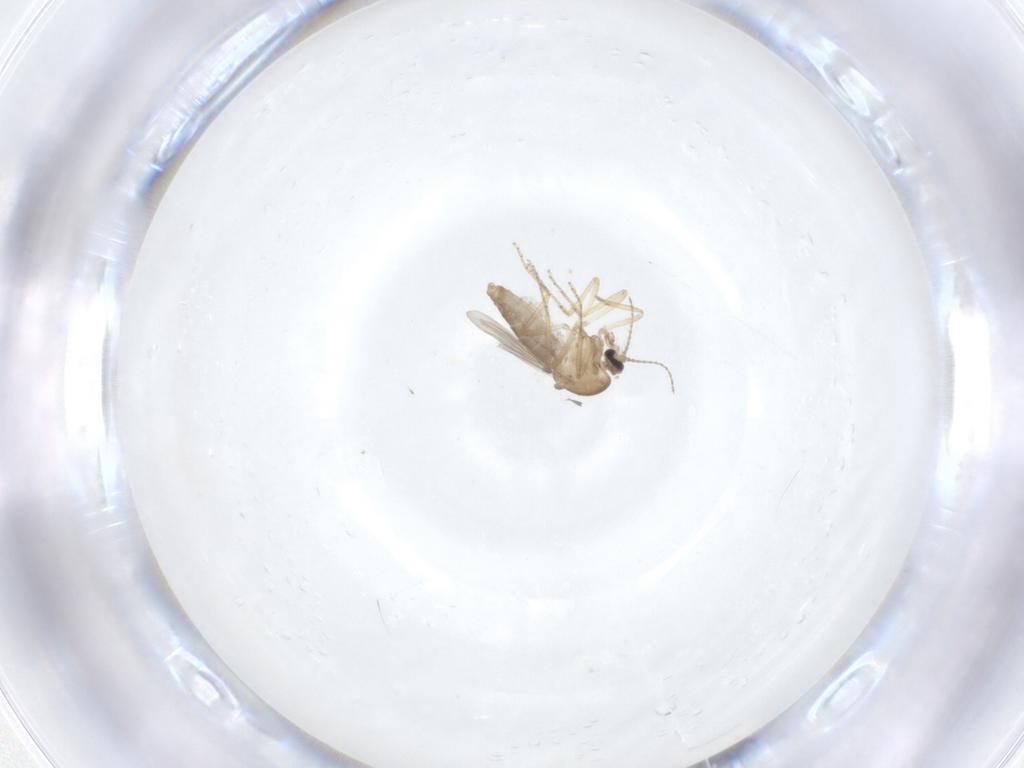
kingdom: Animalia
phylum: Arthropoda
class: Insecta
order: Diptera
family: Ceratopogonidae
